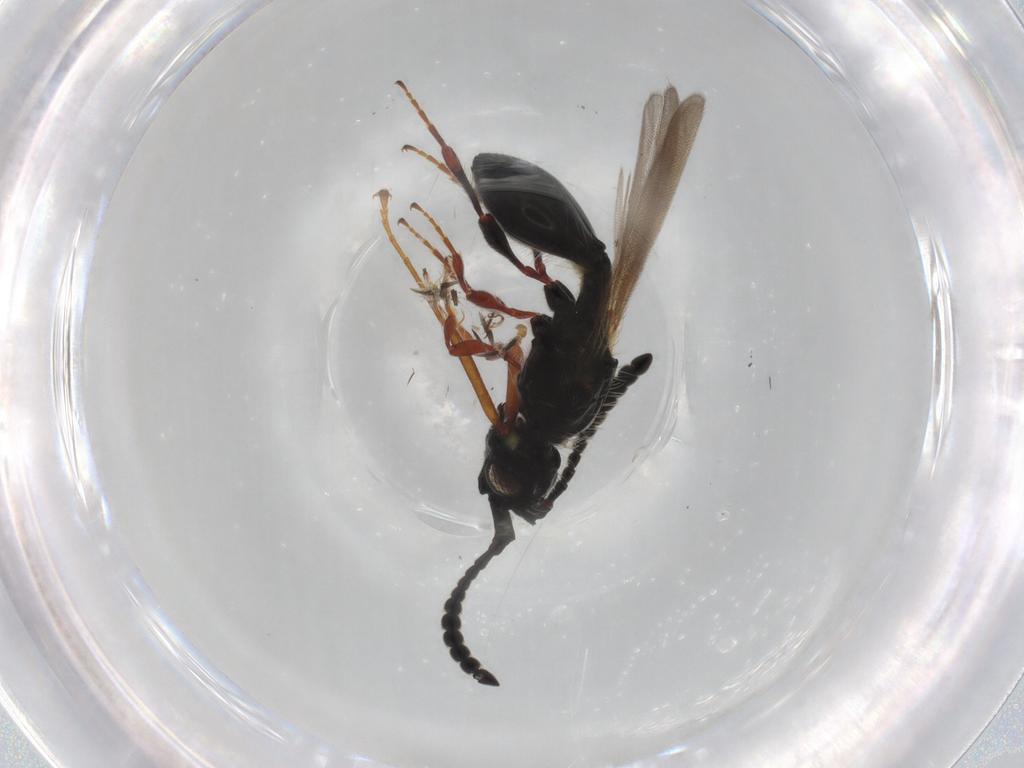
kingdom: Animalia
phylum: Arthropoda
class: Insecta
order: Hymenoptera
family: Formicidae
